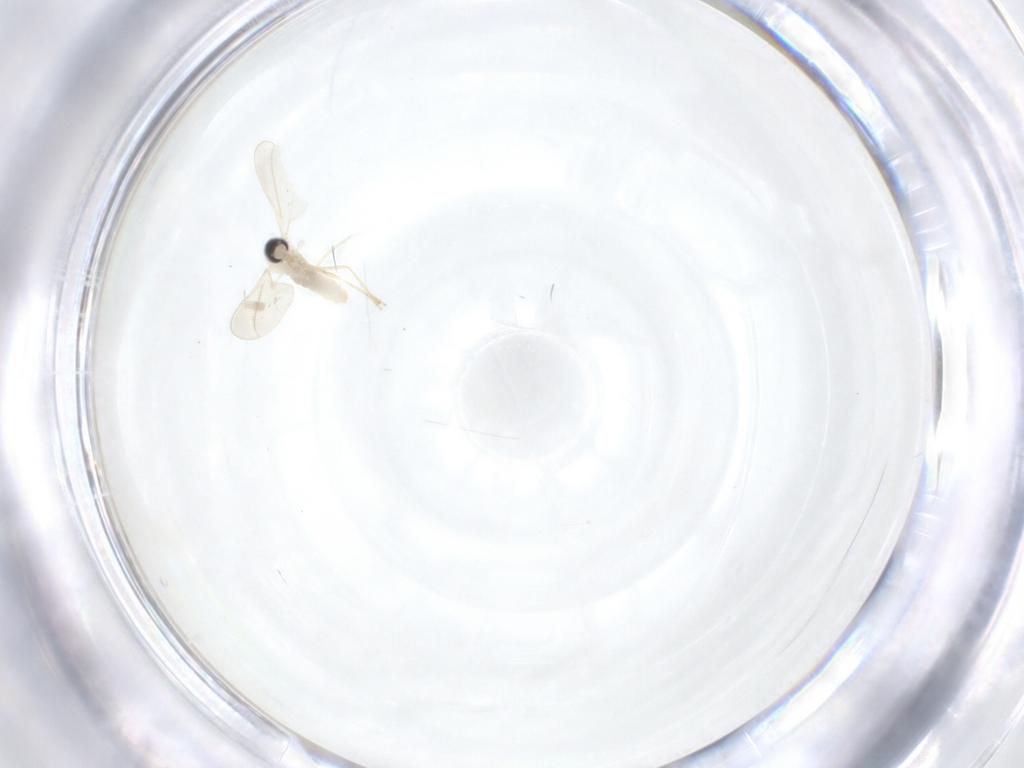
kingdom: Animalia
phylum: Arthropoda
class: Insecta
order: Diptera
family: Cecidomyiidae
